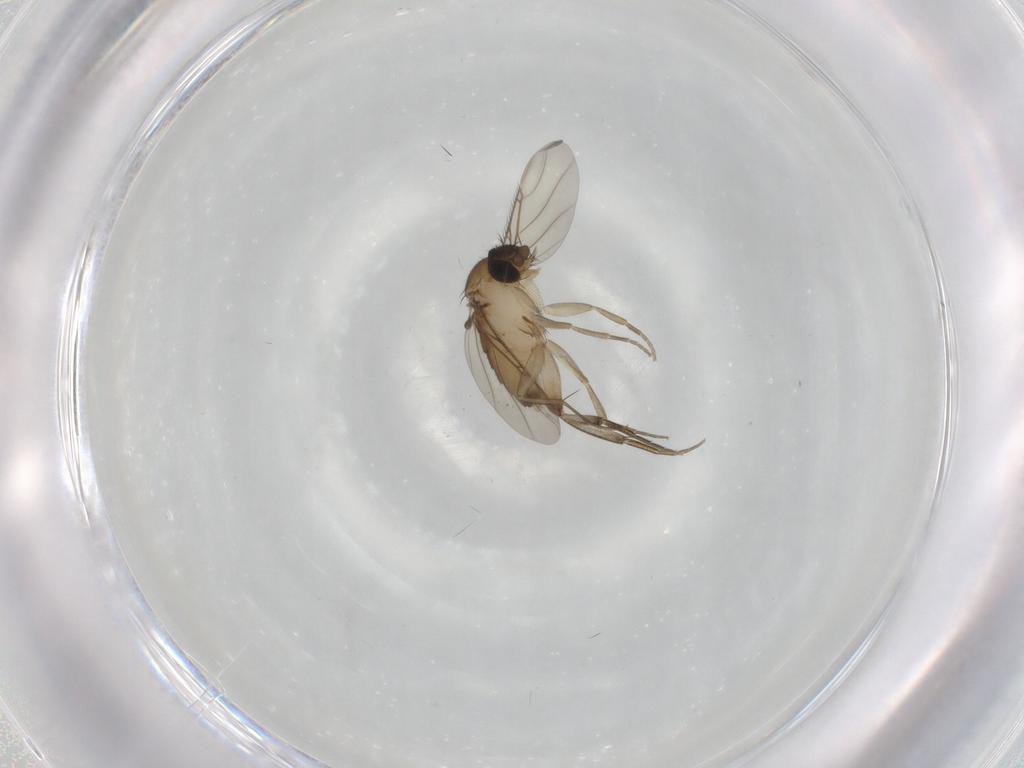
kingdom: Animalia
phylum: Arthropoda
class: Insecta
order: Diptera
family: Phoridae
